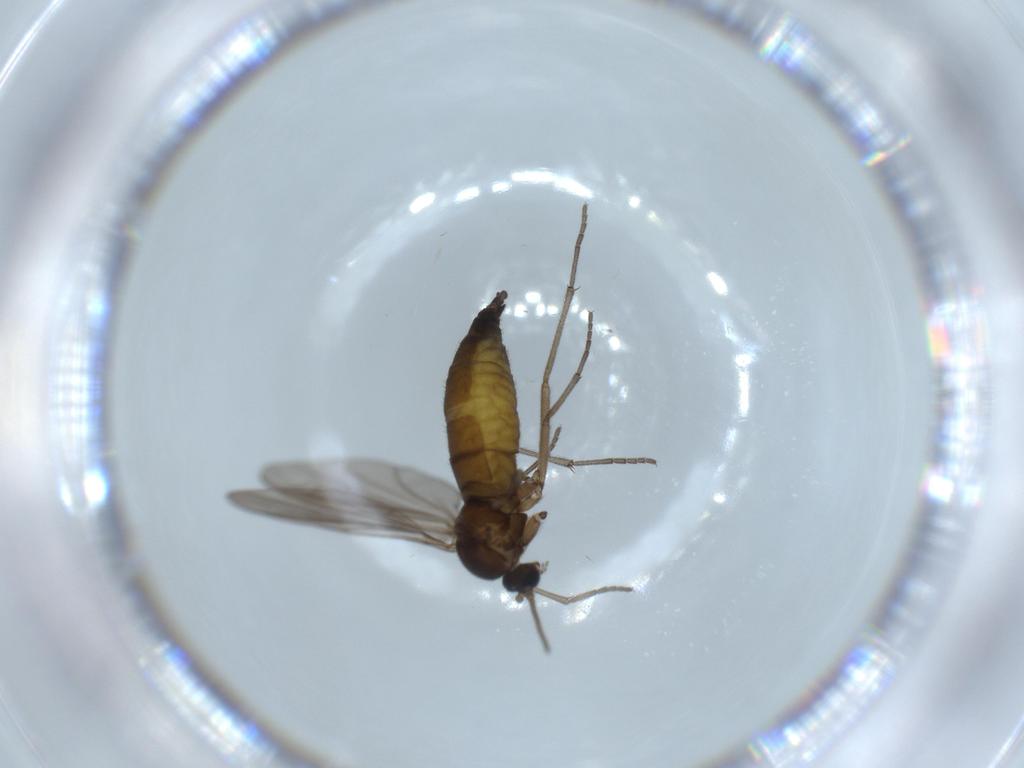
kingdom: Animalia
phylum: Arthropoda
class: Insecta
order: Diptera
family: Sciaridae
